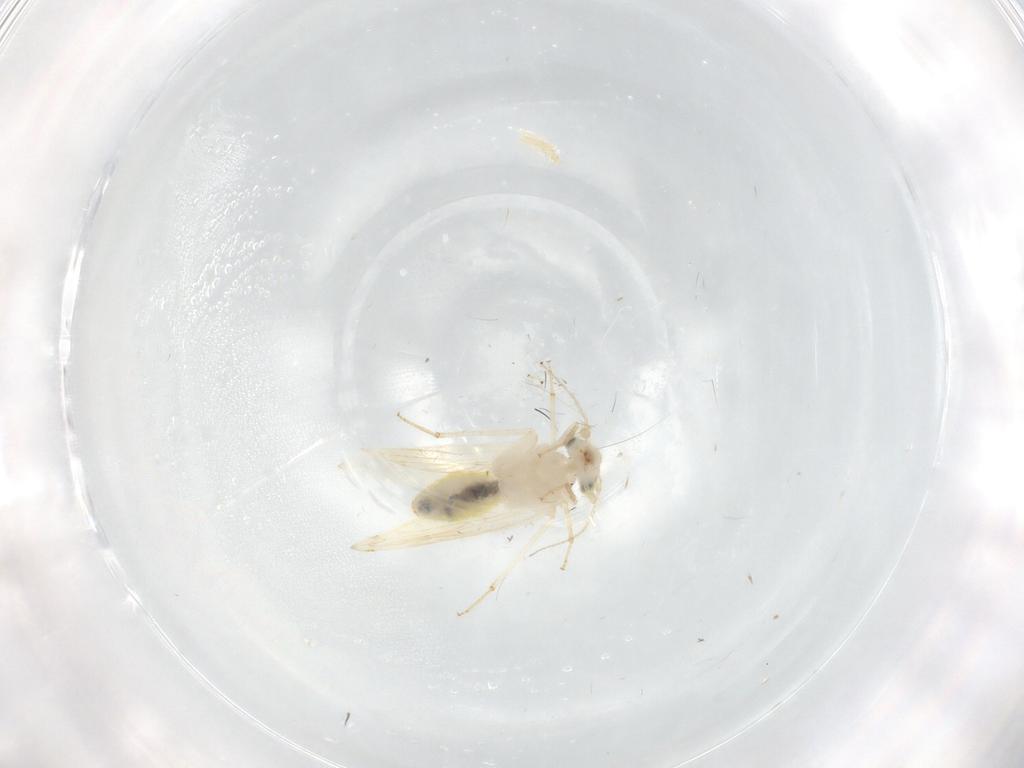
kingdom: Animalia
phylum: Arthropoda
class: Insecta
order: Psocodea
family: Lepidopsocidae
